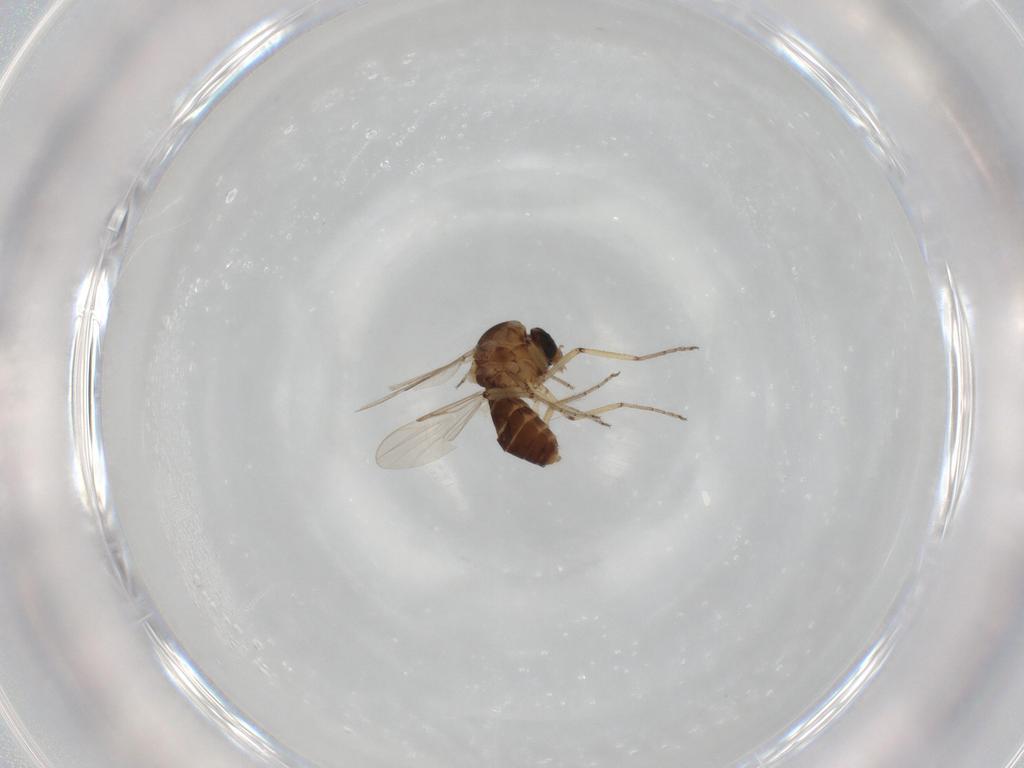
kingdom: Animalia
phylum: Arthropoda
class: Insecta
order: Diptera
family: Ceratopogonidae
